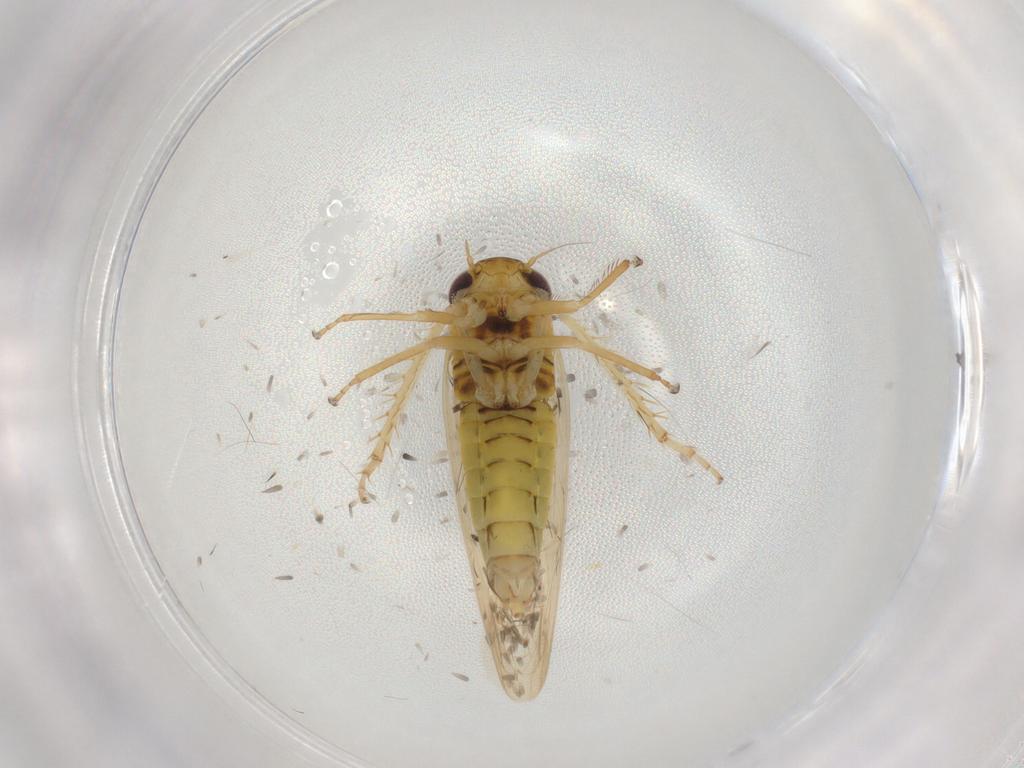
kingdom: Animalia
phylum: Arthropoda
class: Insecta
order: Hemiptera
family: Cicadellidae
